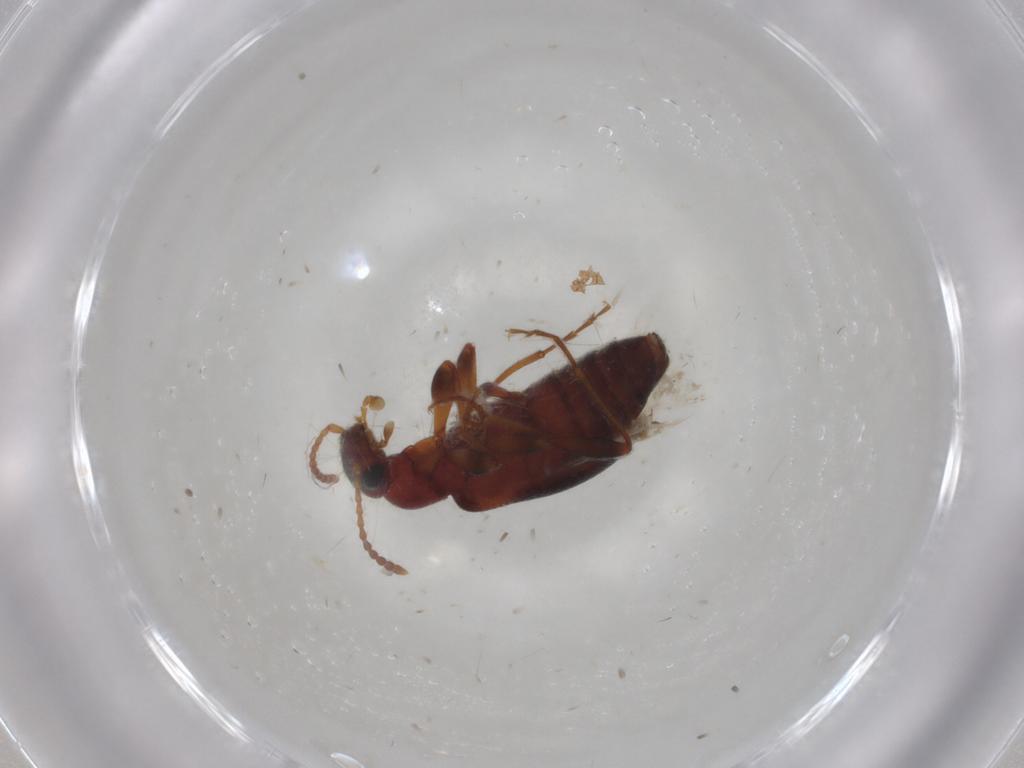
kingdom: Animalia
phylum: Arthropoda
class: Insecta
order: Coleoptera
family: Anthicidae
